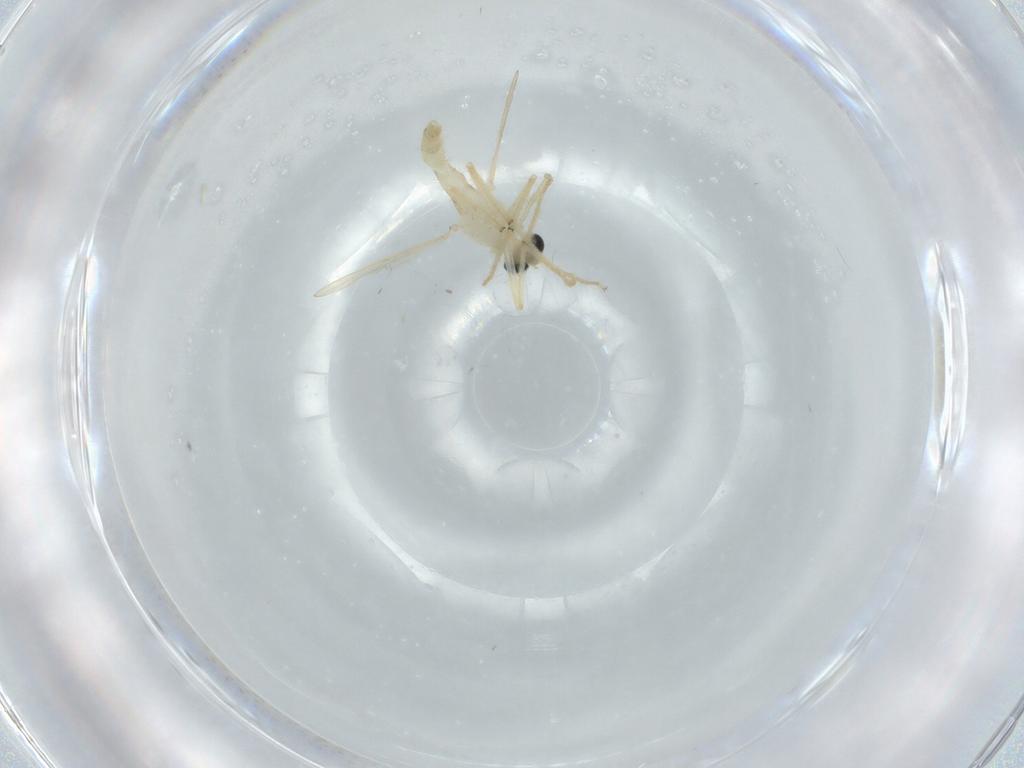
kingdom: Animalia
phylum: Arthropoda
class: Insecta
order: Diptera
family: Chironomidae
